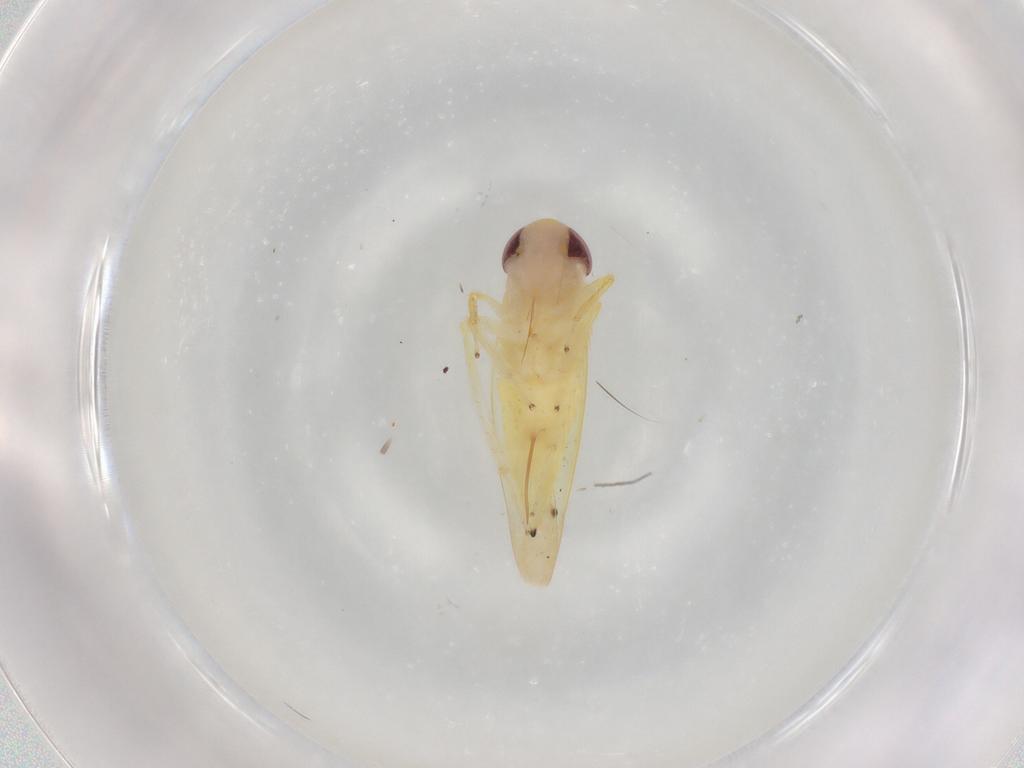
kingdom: Animalia
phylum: Arthropoda
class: Insecta
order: Hemiptera
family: Cicadellidae
